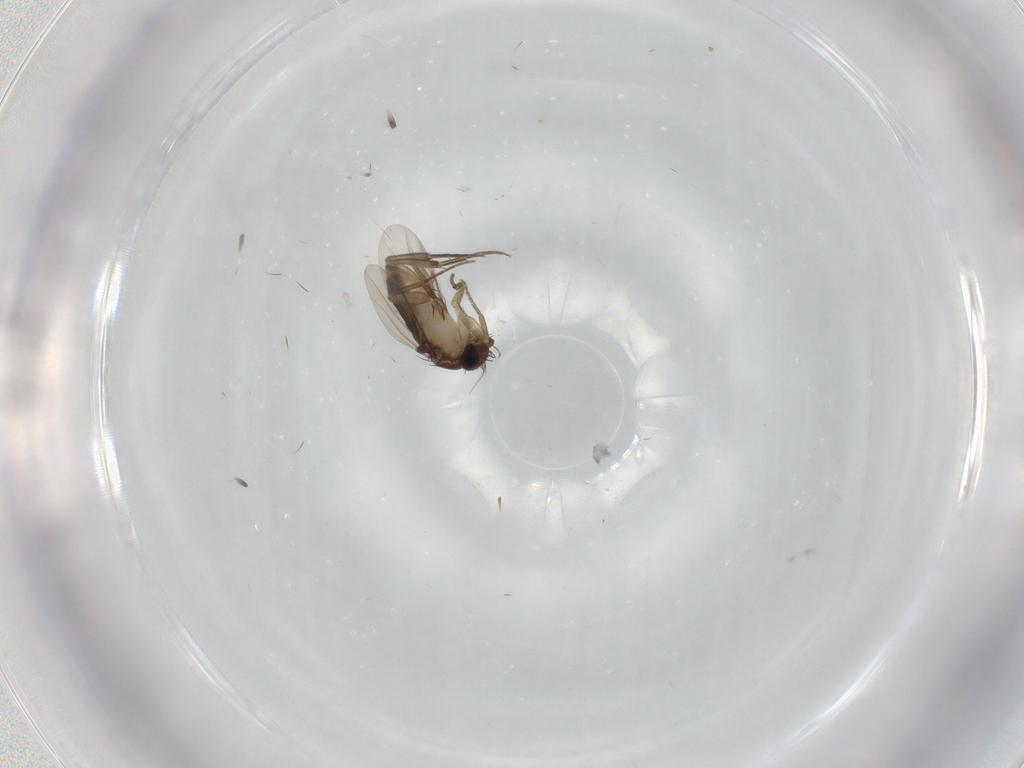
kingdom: Animalia
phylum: Arthropoda
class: Insecta
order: Diptera
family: Phoridae
